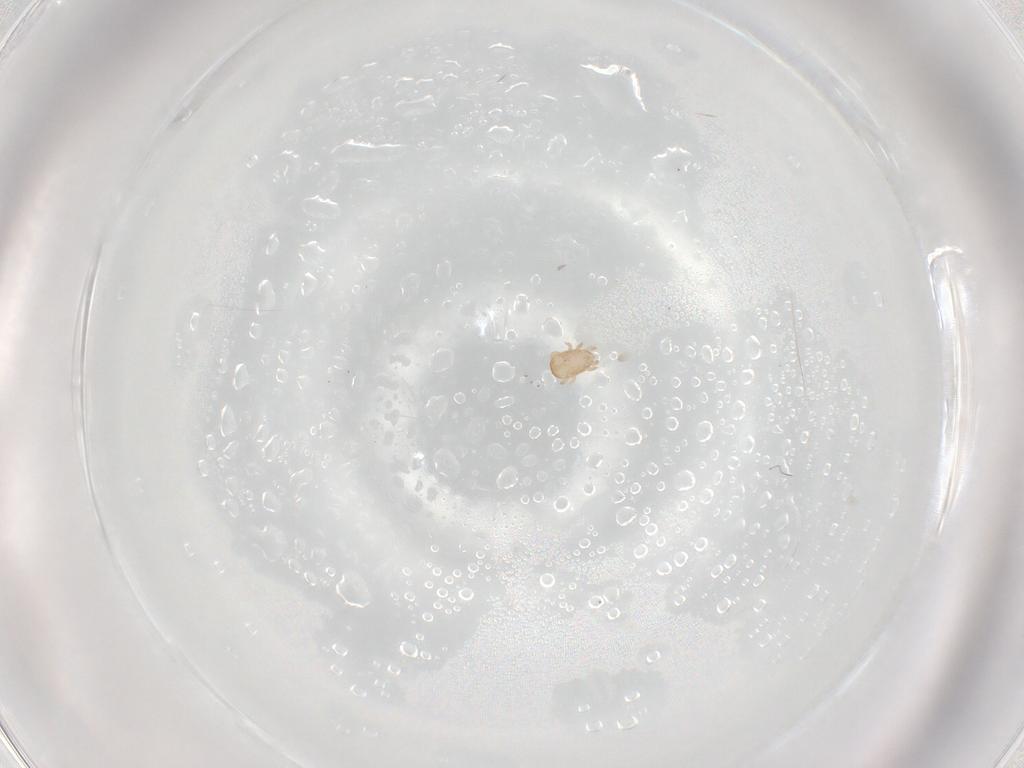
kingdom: Animalia
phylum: Arthropoda
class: Arachnida
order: Mesostigmata
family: Ascidae
